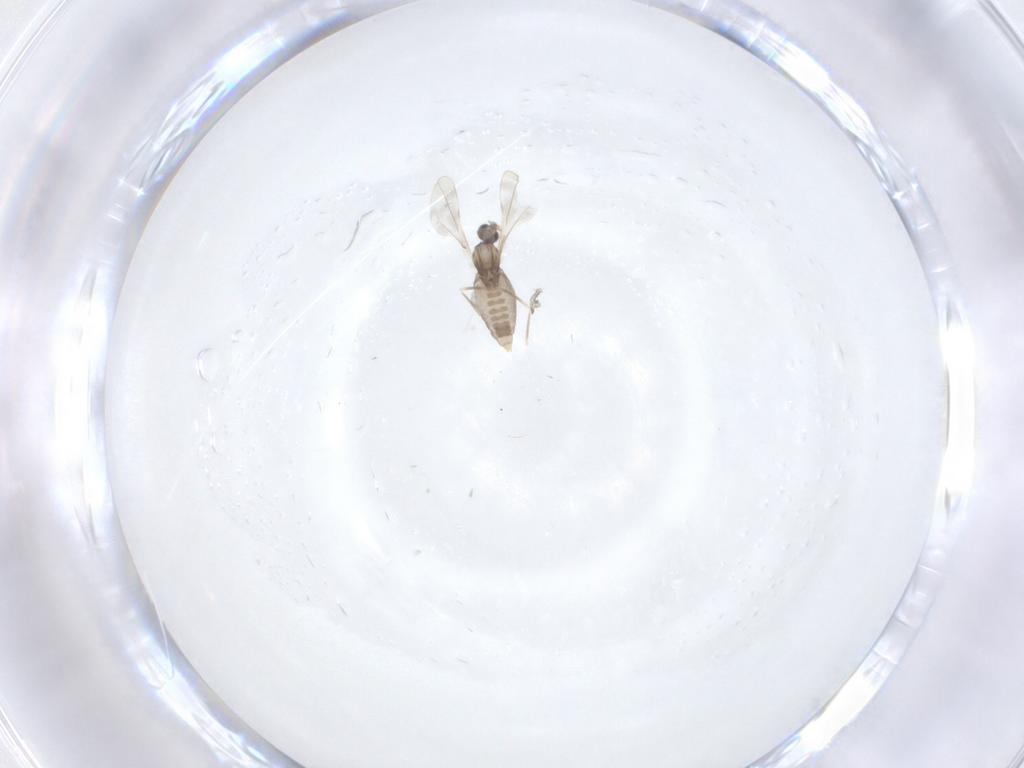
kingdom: Animalia
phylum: Arthropoda
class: Insecta
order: Diptera
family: Cecidomyiidae
